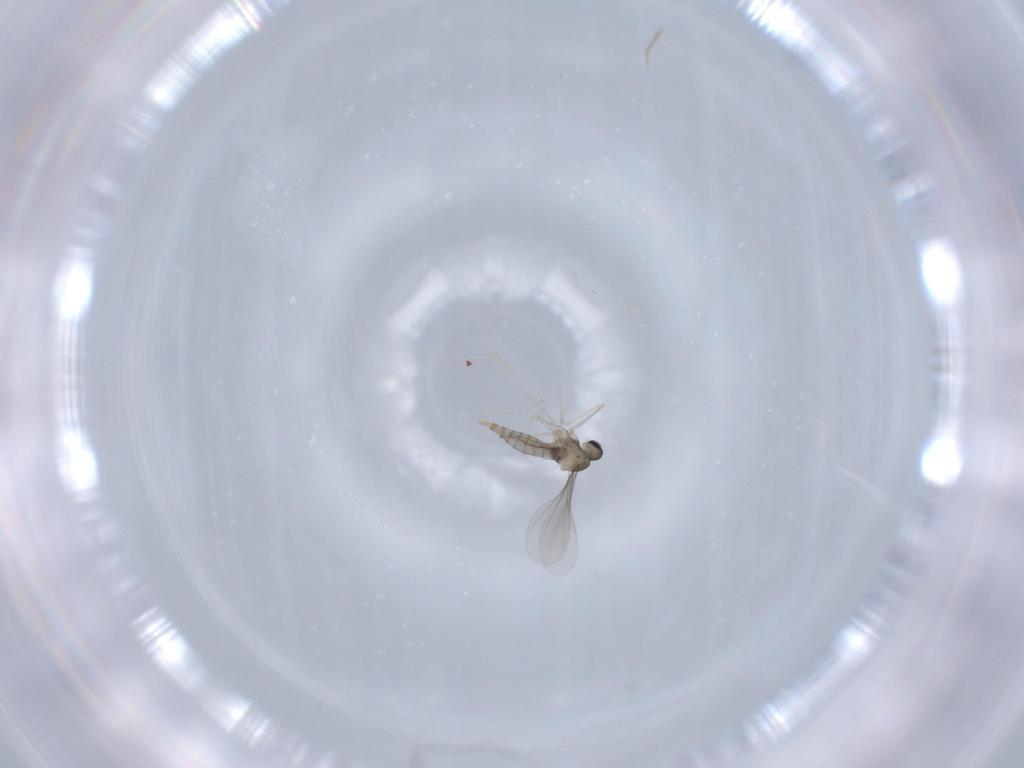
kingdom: Animalia
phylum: Arthropoda
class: Insecta
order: Diptera
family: Cecidomyiidae
